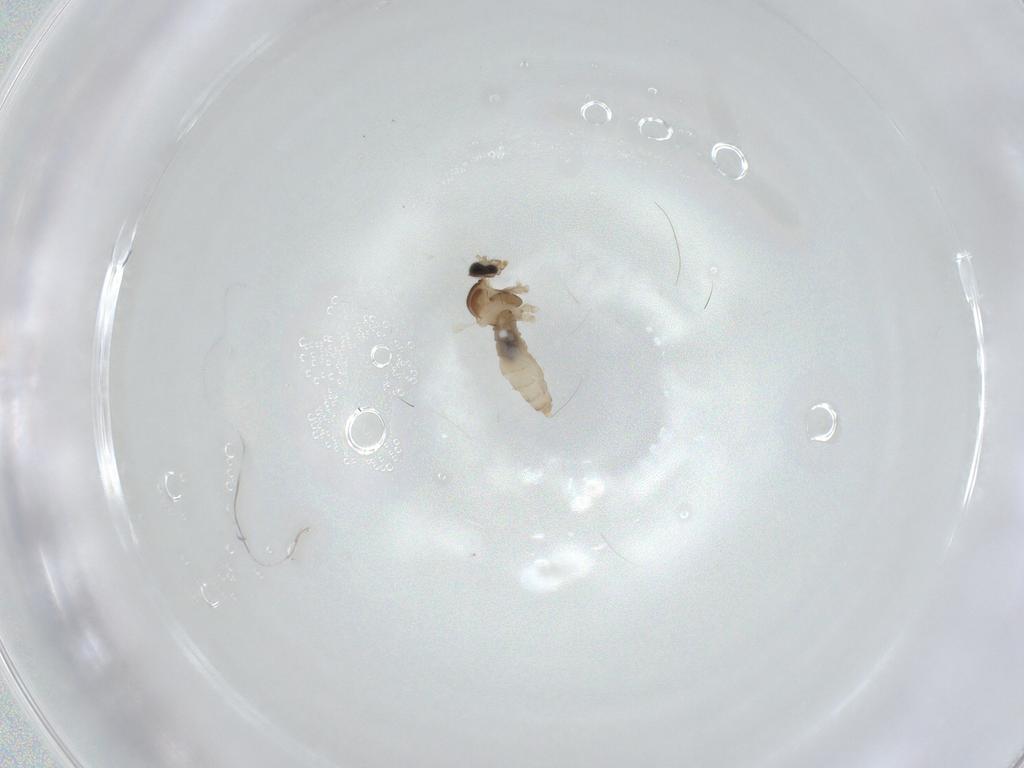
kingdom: Animalia
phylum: Arthropoda
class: Insecta
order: Diptera
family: Cecidomyiidae
